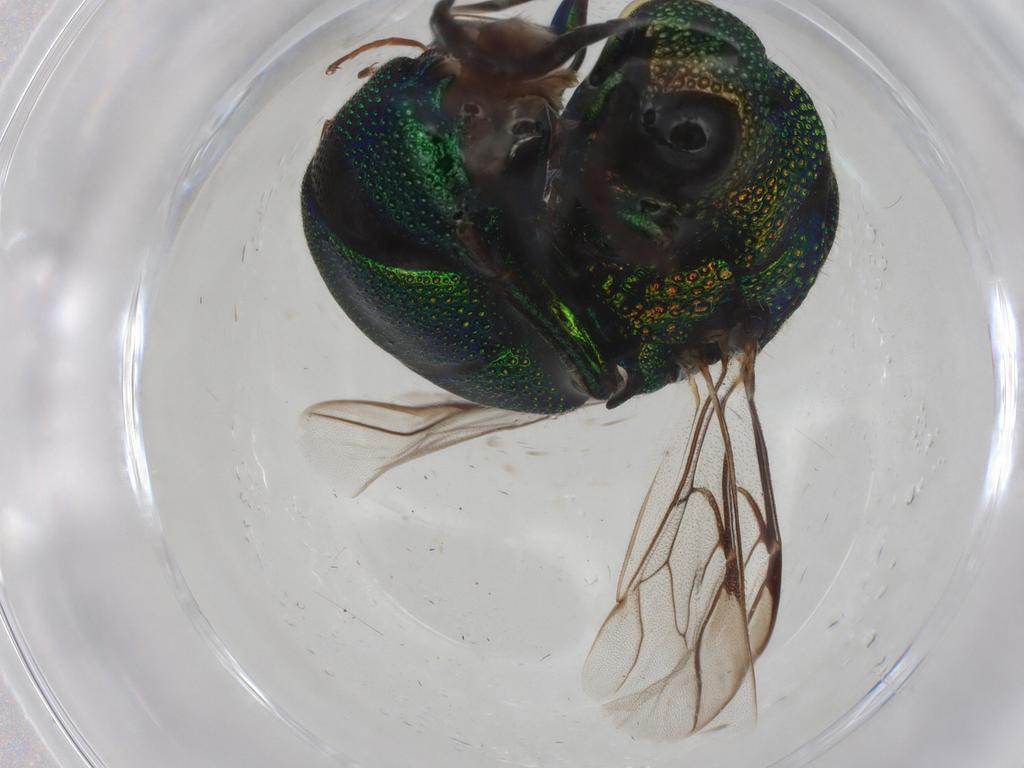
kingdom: Animalia
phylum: Arthropoda
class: Insecta
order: Hymenoptera
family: Chrysididae
